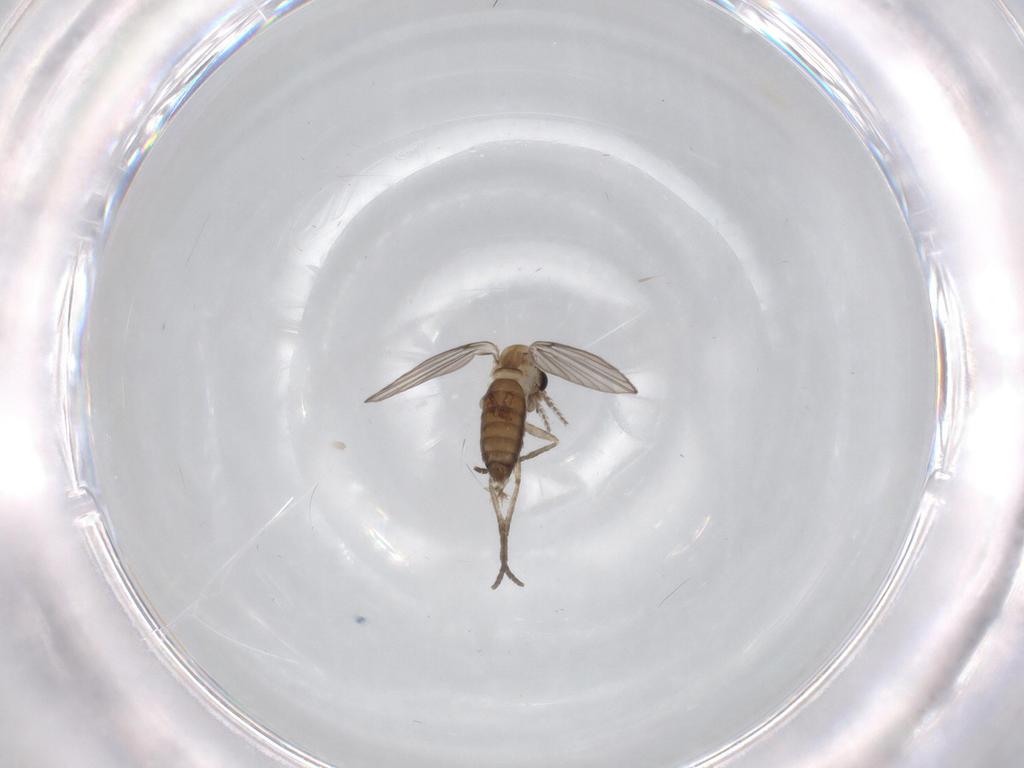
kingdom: Animalia
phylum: Arthropoda
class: Insecta
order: Diptera
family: Psychodidae
